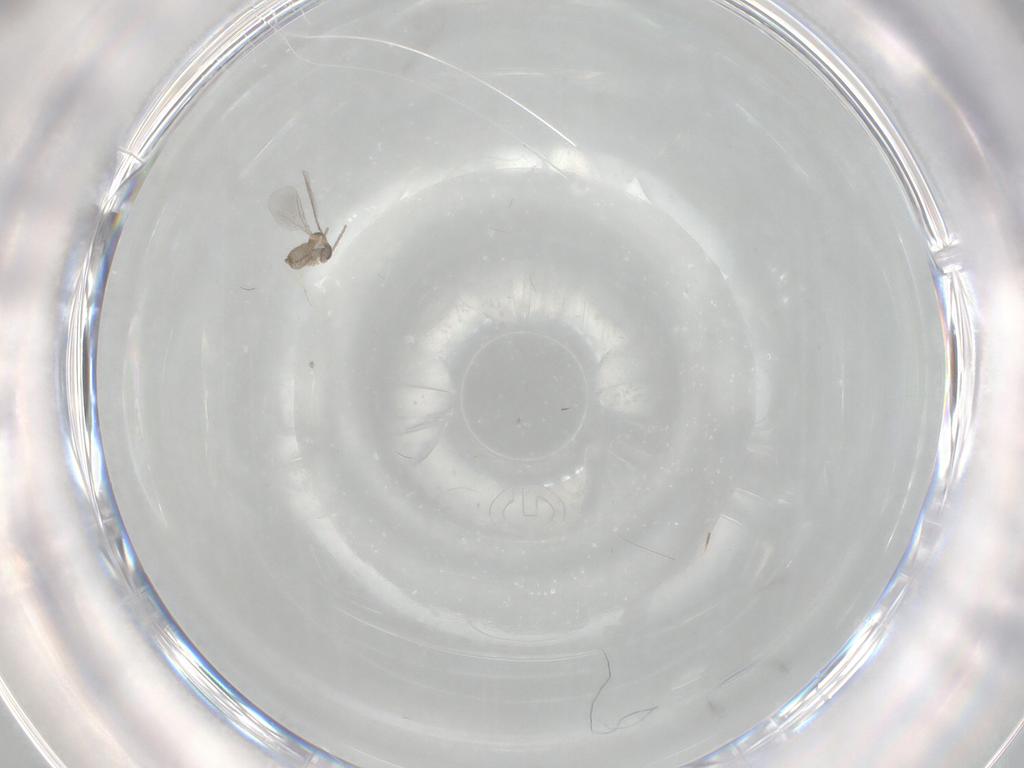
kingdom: Animalia
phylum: Arthropoda
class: Insecta
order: Diptera
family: Cecidomyiidae
